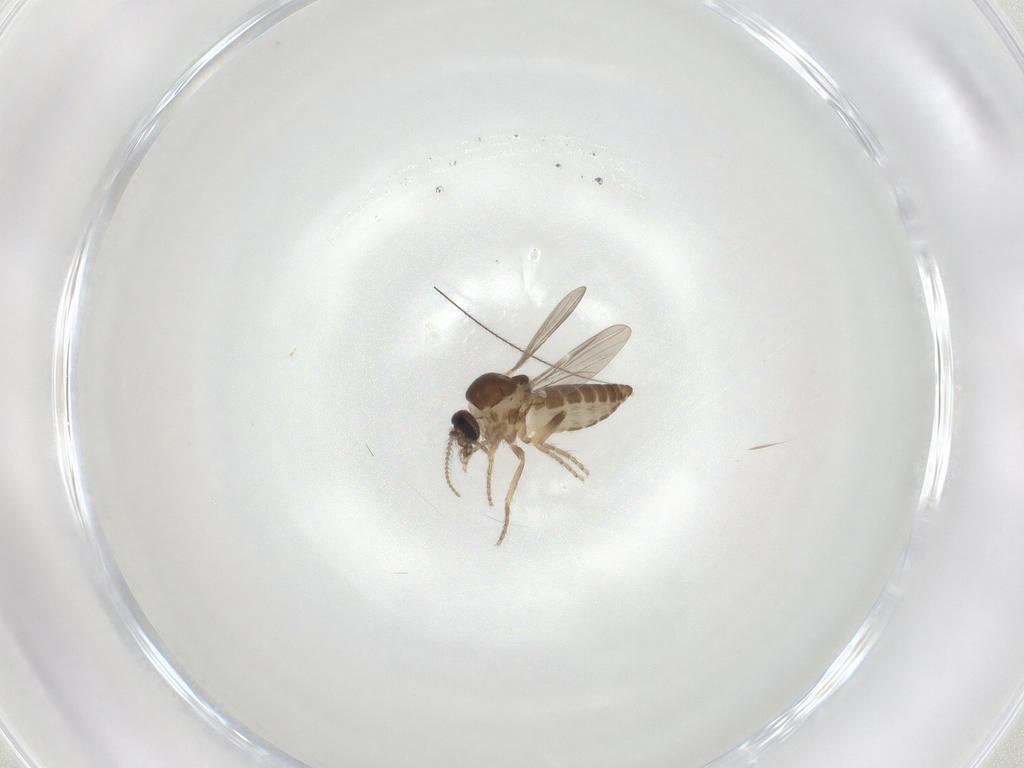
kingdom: Animalia
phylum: Arthropoda
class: Insecta
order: Diptera
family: Ceratopogonidae
